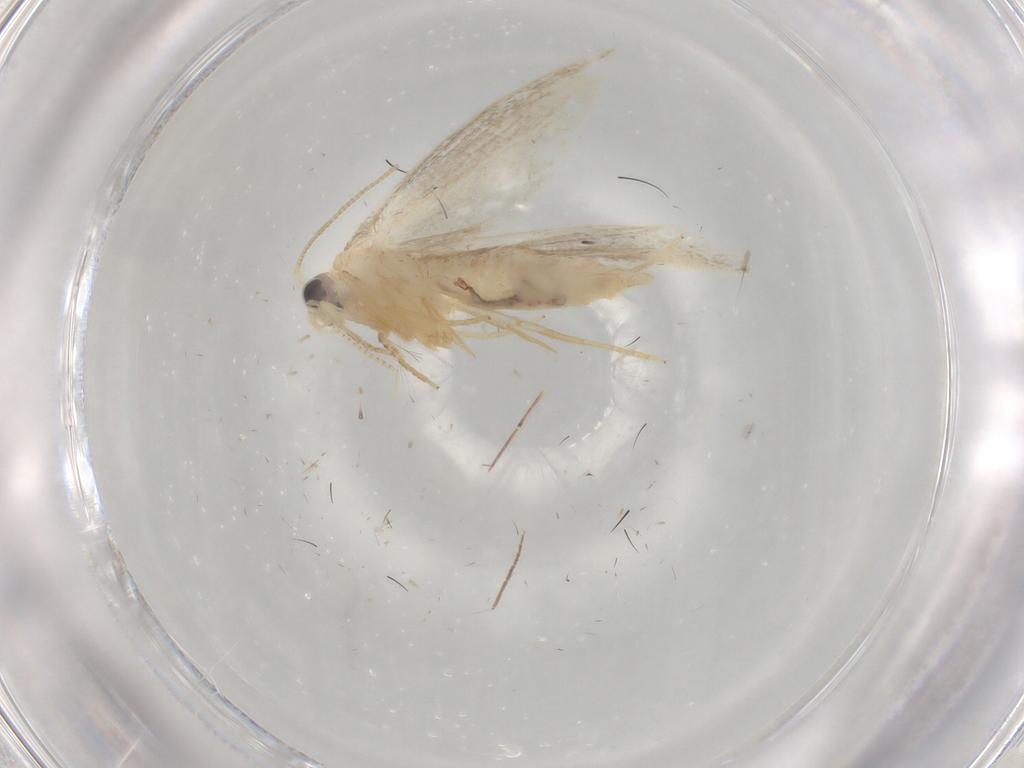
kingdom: Animalia
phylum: Arthropoda
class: Insecta
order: Lepidoptera
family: Nepticulidae
